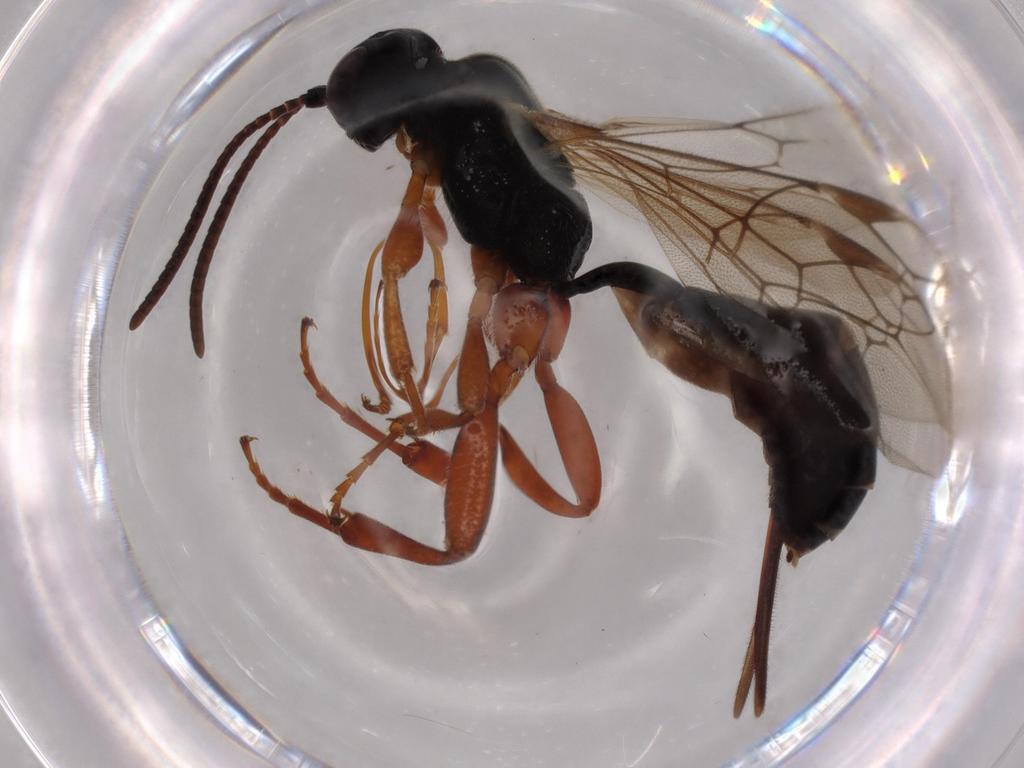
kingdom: Animalia
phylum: Arthropoda
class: Insecta
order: Hymenoptera
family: Ichneumonidae
